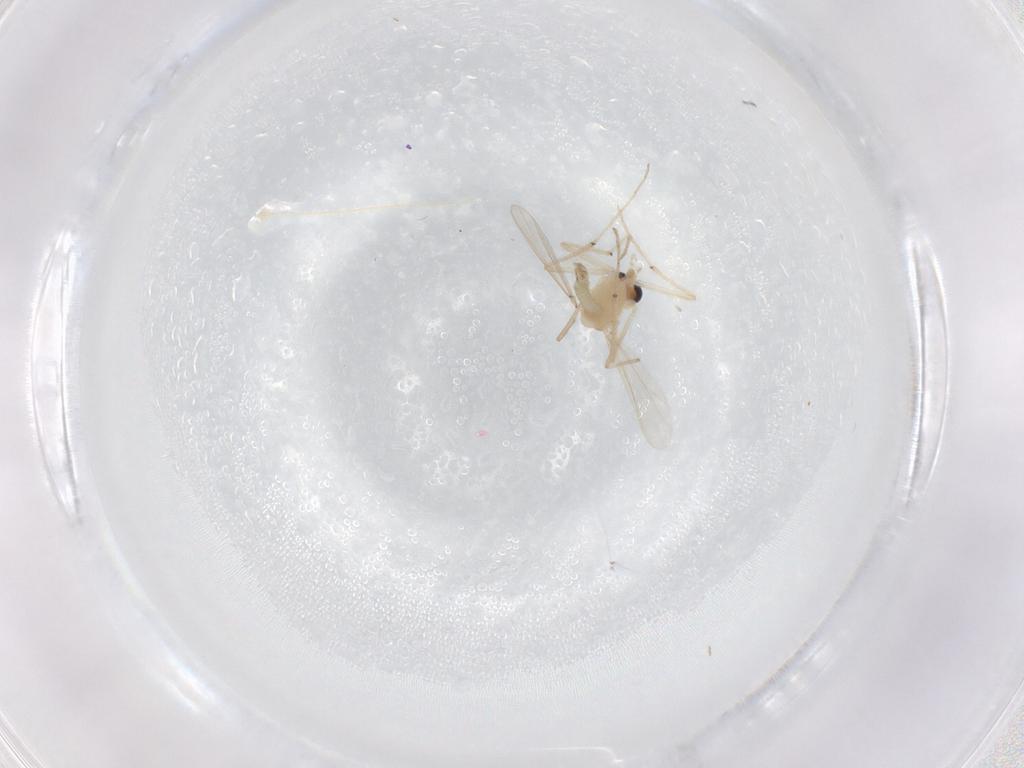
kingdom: Animalia
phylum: Arthropoda
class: Insecta
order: Diptera
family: Chironomidae
